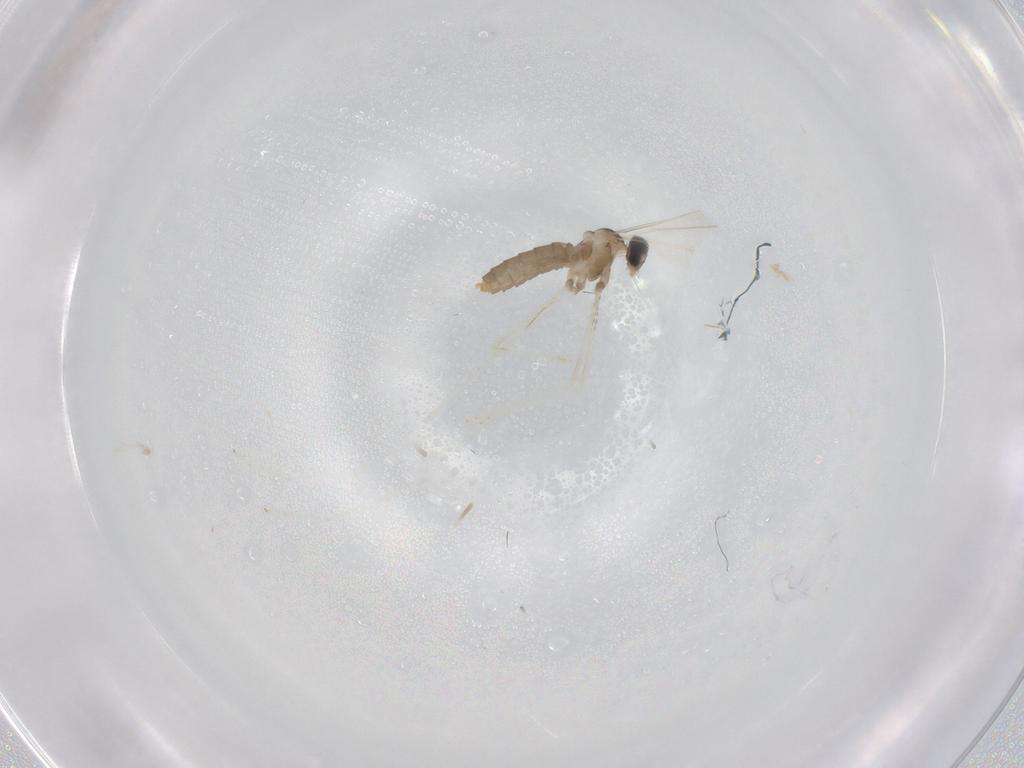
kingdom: Animalia
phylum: Arthropoda
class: Insecta
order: Diptera
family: Cecidomyiidae
